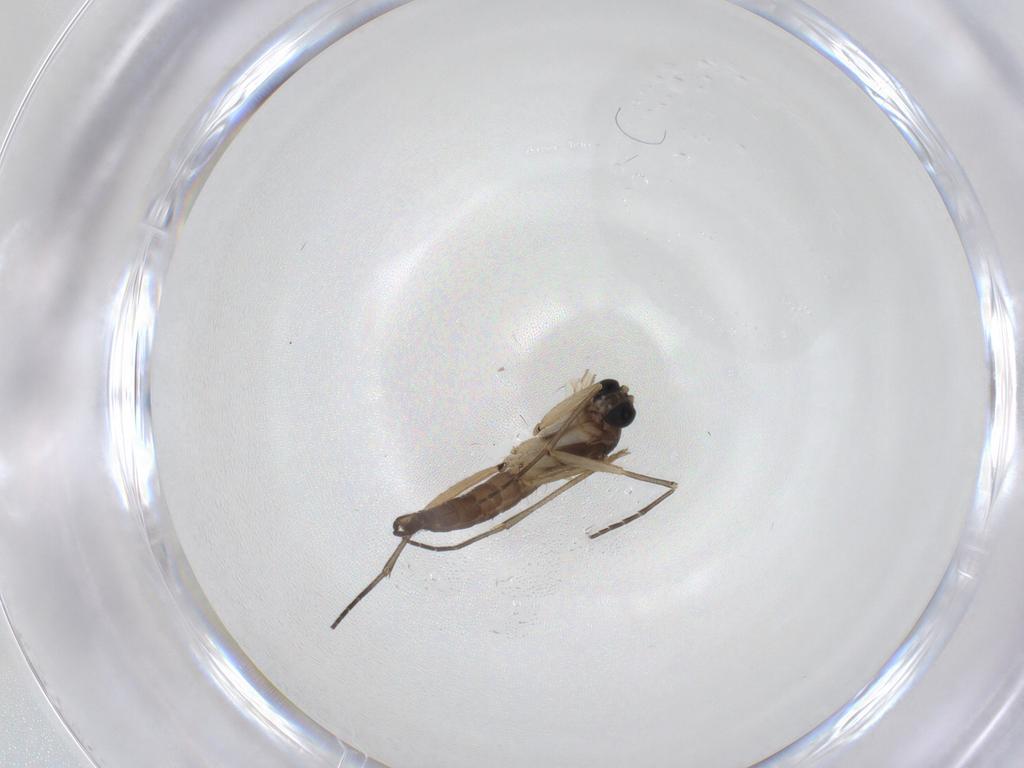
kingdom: Animalia
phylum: Arthropoda
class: Insecta
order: Diptera
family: Sciaridae
